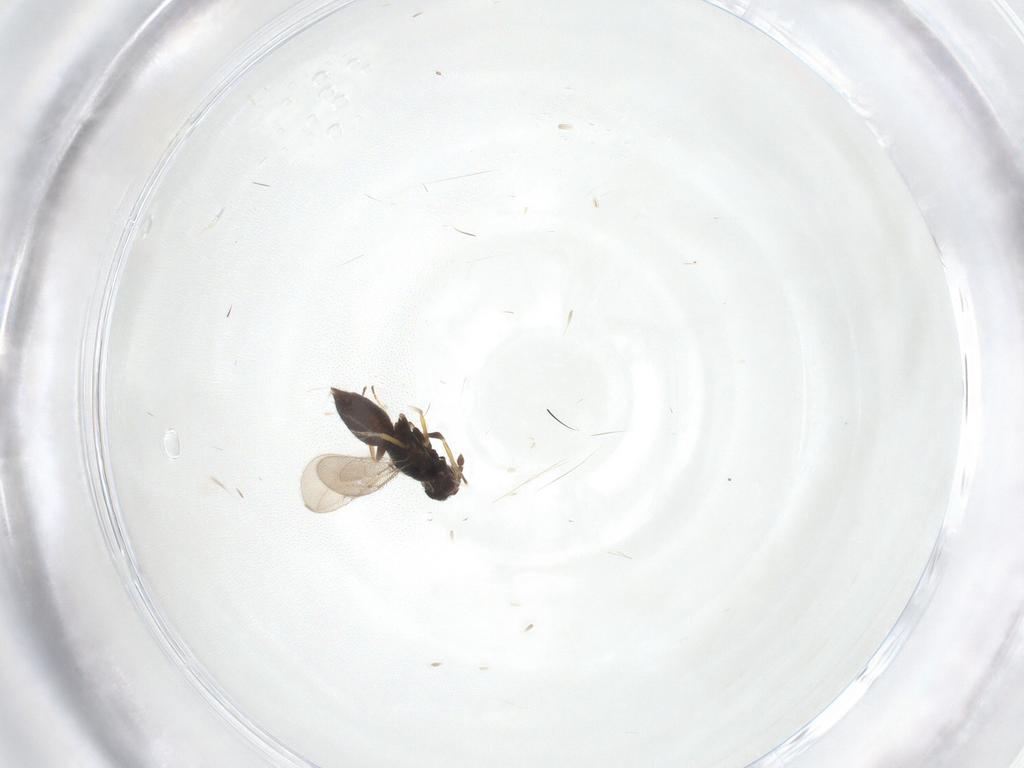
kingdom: Animalia
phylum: Arthropoda
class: Insecta
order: Hymenoptera
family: Eulophidae
